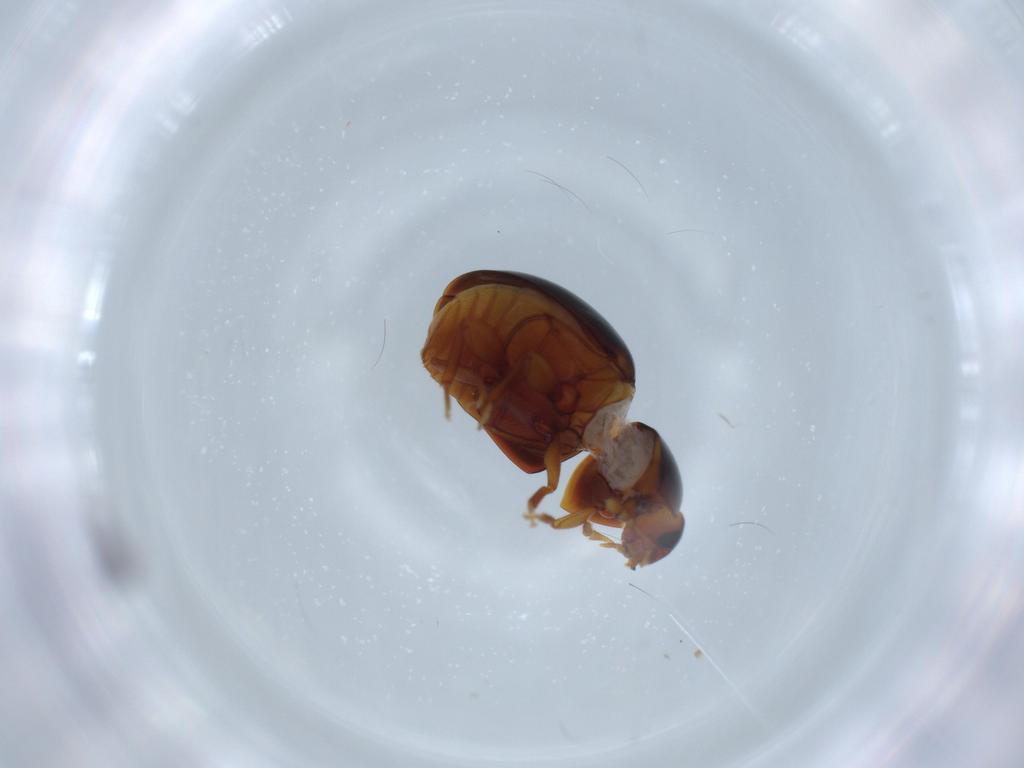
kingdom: Animalia
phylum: Arthropoda
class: Insecta
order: Coleoptera
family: Phalacridae
